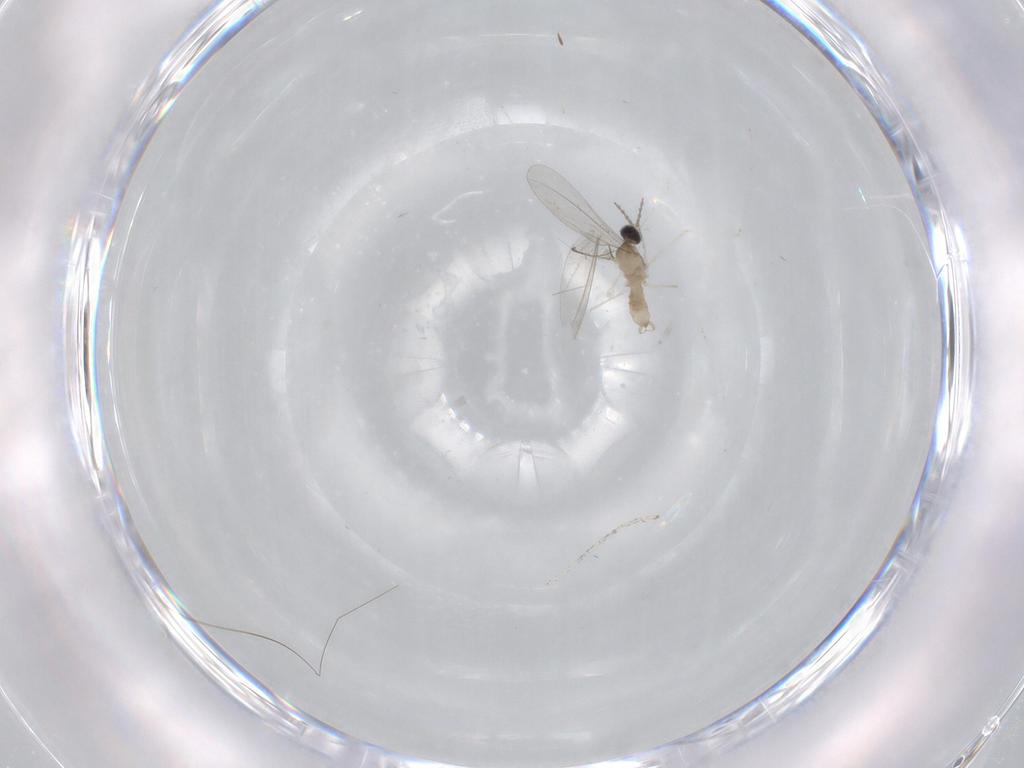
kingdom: Animalia
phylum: Arthropoda
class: Insecta
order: Diptera
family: Cecidomyiidae
